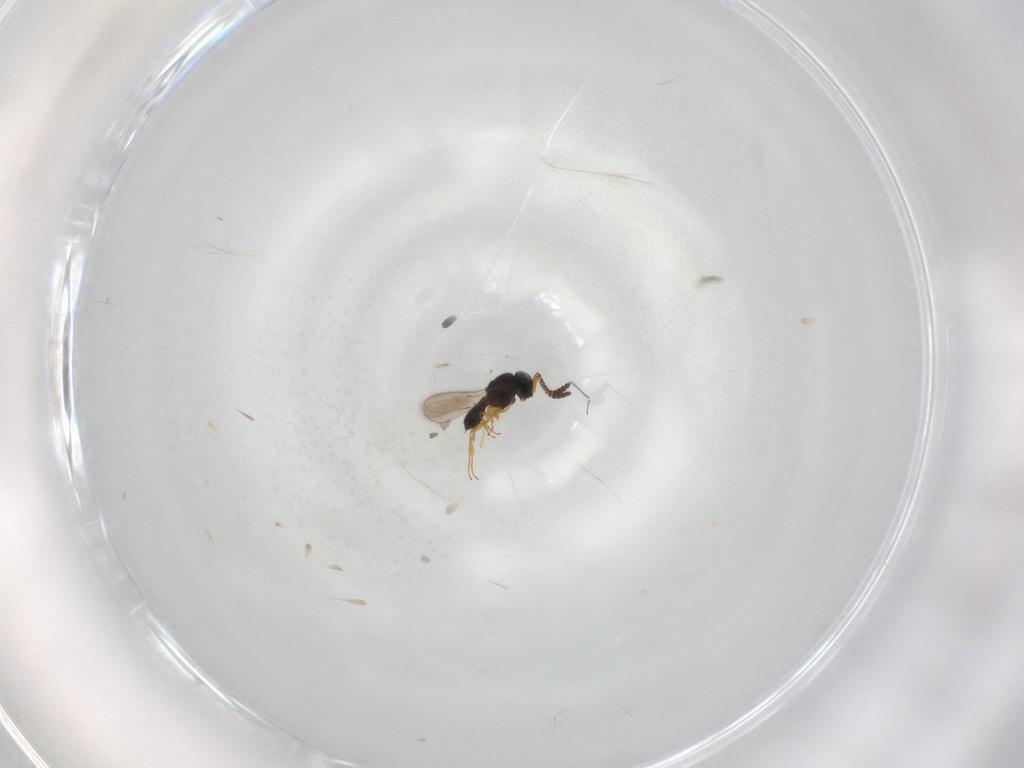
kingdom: Animalia
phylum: Arthropoda
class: Insecta
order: Hymenoptera
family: Scelionidae
